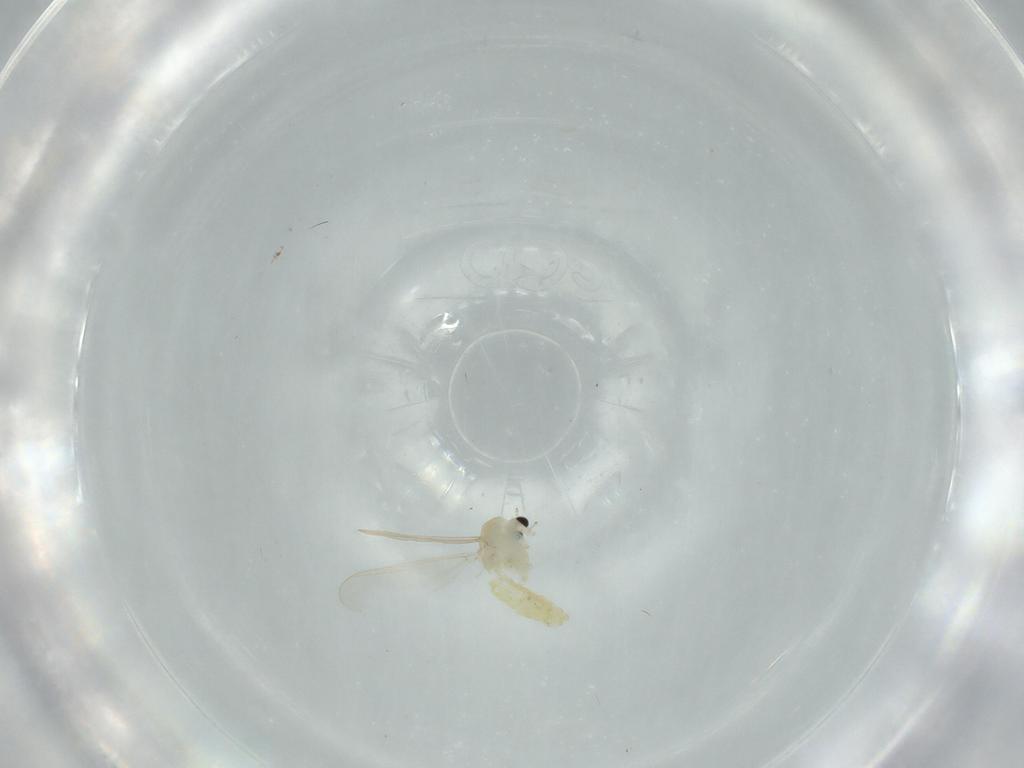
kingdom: Animalia
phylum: Arthropoda
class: Insecta
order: Diptera
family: Chironomidae
